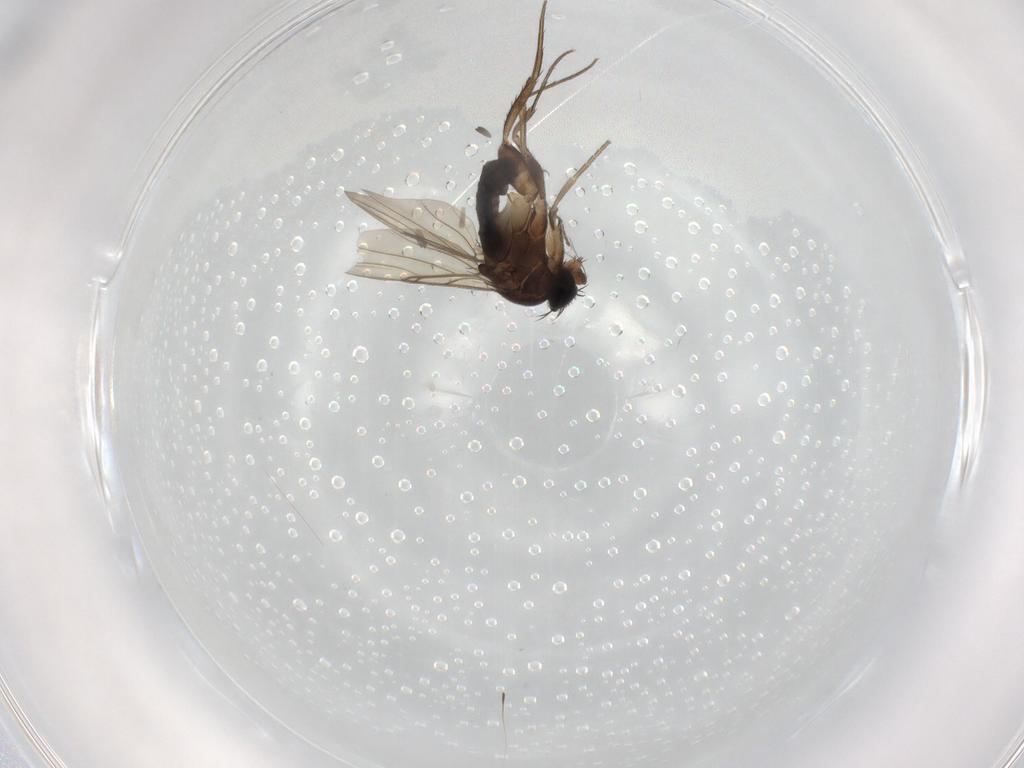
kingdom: Animalia
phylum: Arthropoda
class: Insecta
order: Diptera
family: Phoridae
